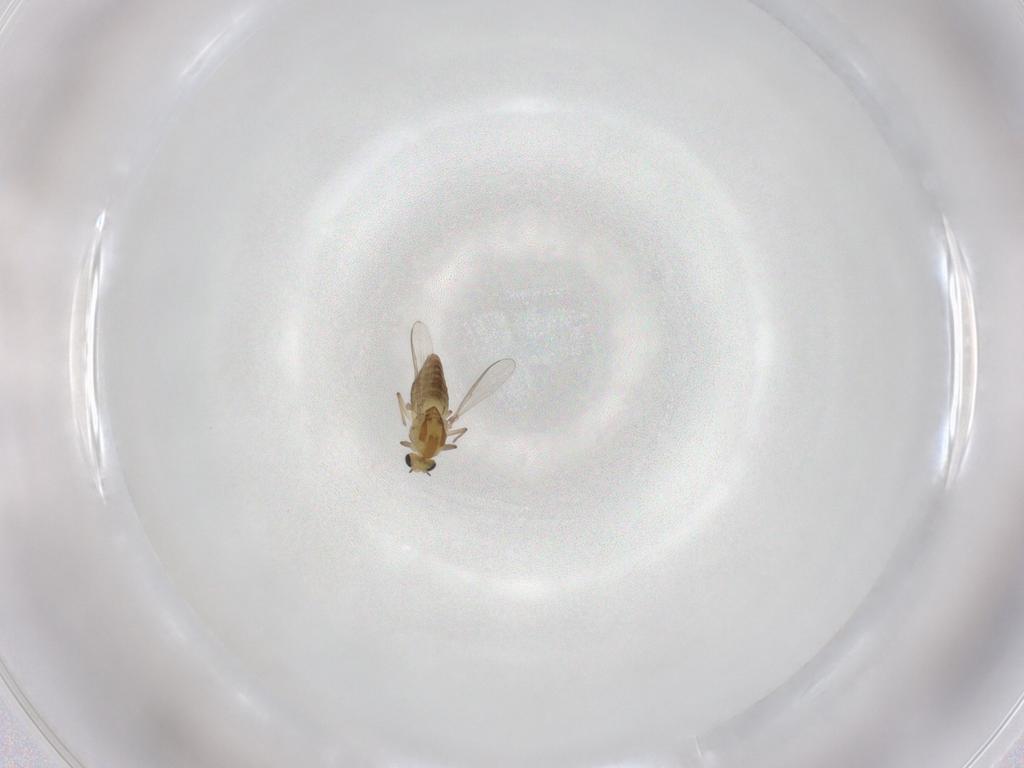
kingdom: Animalia
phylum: Arthropoda
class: Insecta
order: Diptera
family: Chironomidae
